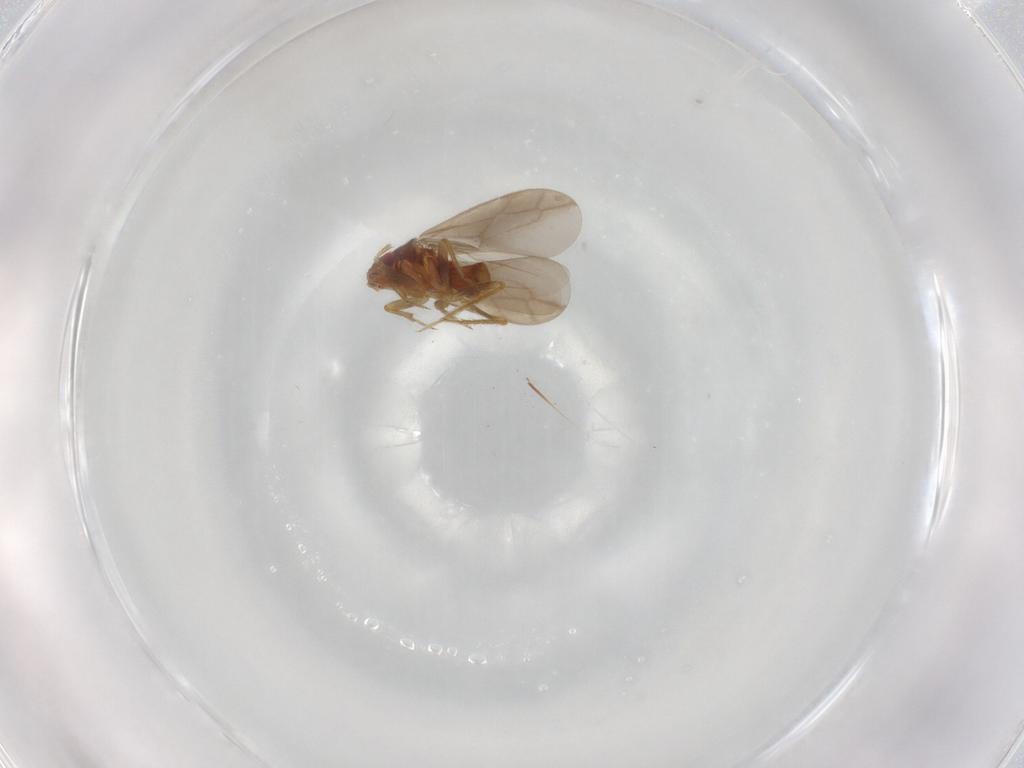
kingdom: Animalia
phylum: Arthropoda
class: Insecta
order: Hemiptera
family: Ceratocombidae
